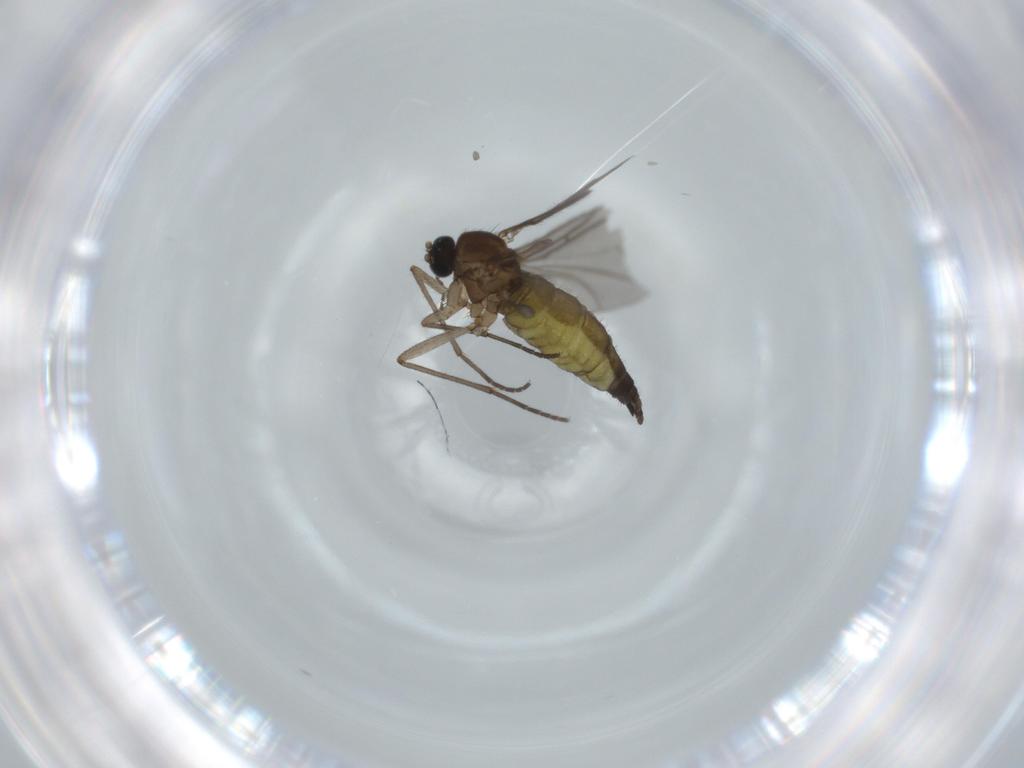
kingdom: Animalia
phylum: Arthropoda
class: Insecta
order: Diptera
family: Sciaridae
